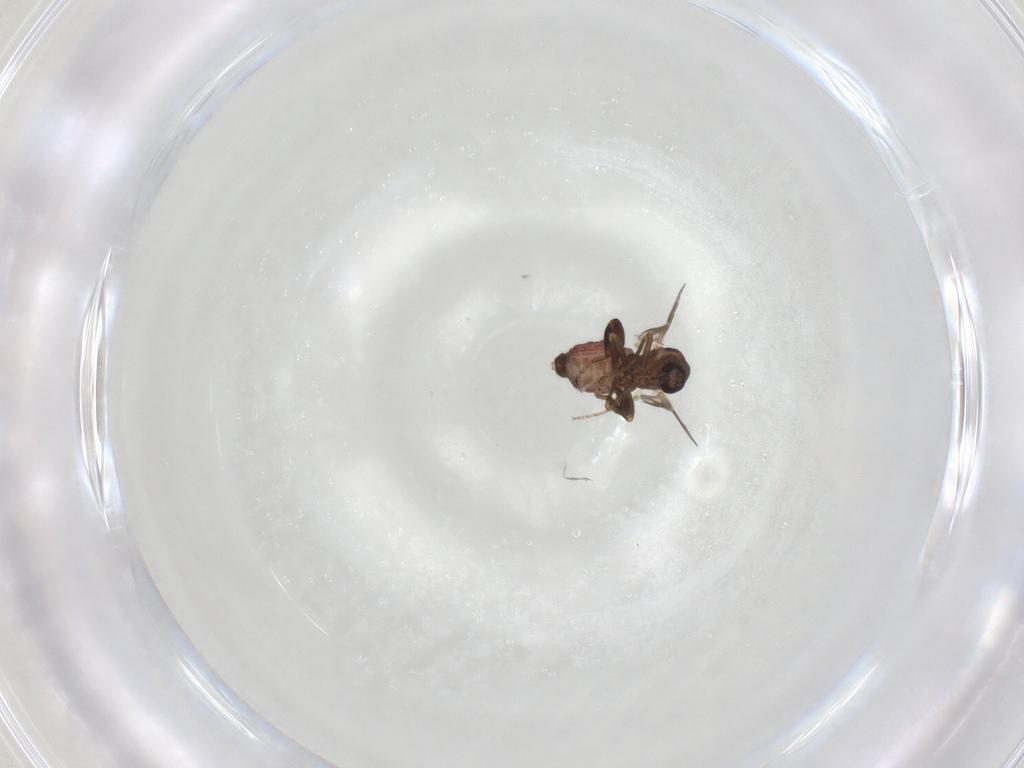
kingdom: Animalia
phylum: Arthropoda
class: Insecta
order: Diptera
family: Ceratopogonidae
